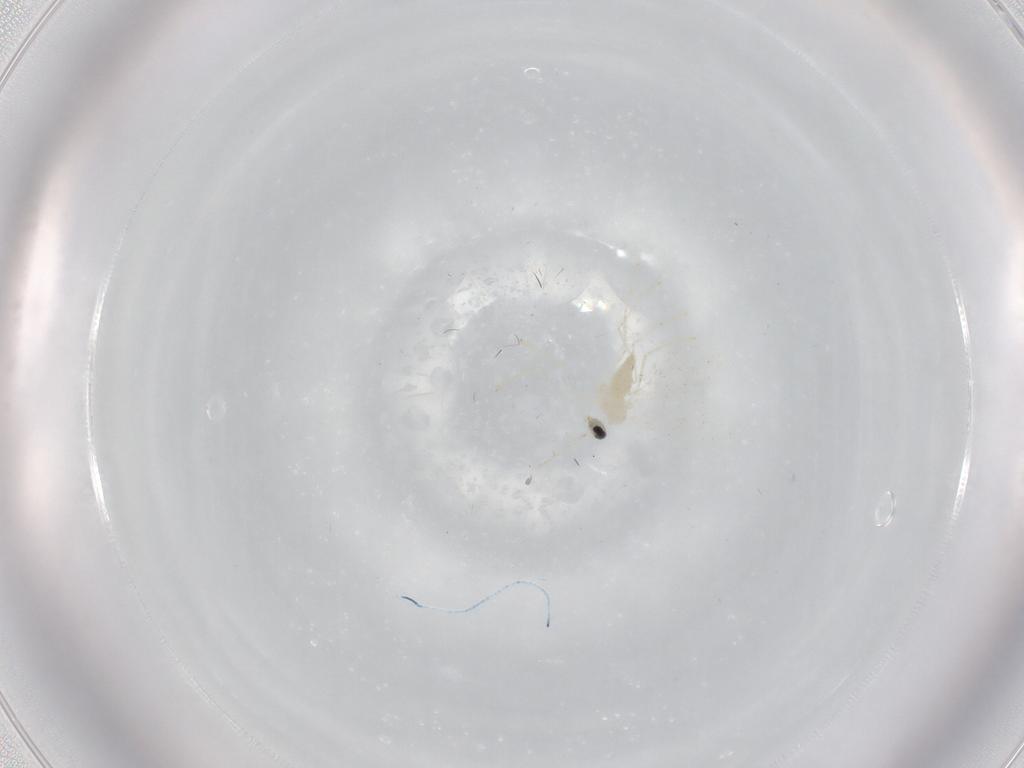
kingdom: Animalia
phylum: Arthropoda
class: Insecta
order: Diptera
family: Cecidomyiidae
